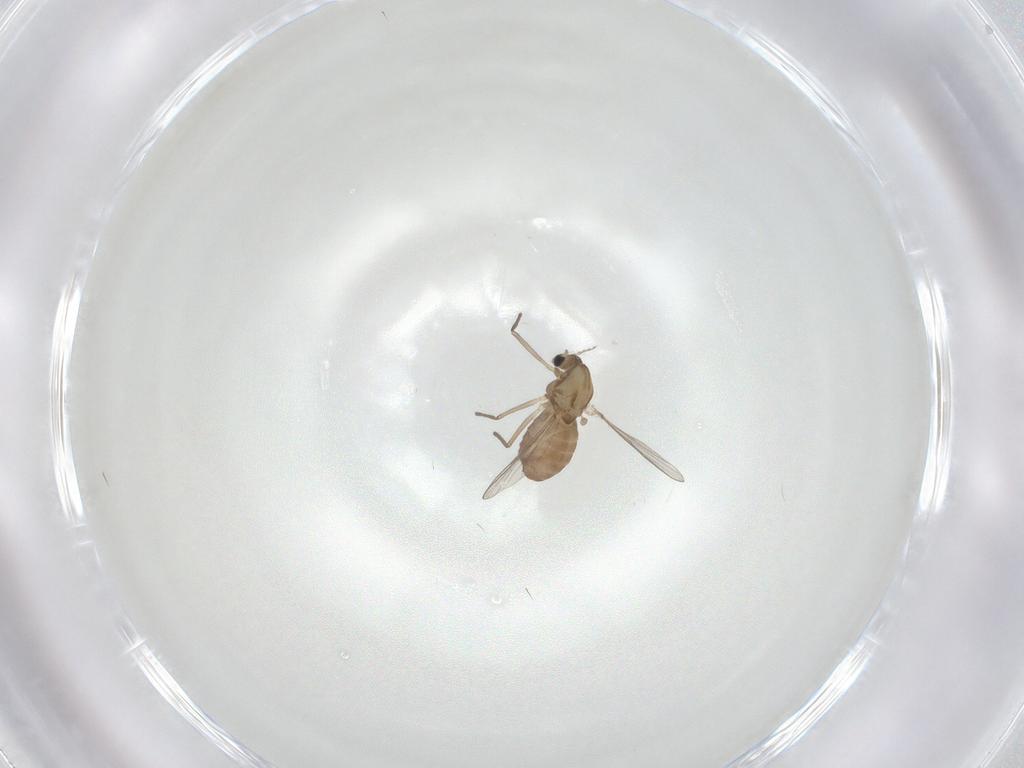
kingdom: Animalia
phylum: Arthropoda
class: Insecta
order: Diptera
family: Chironomidae
